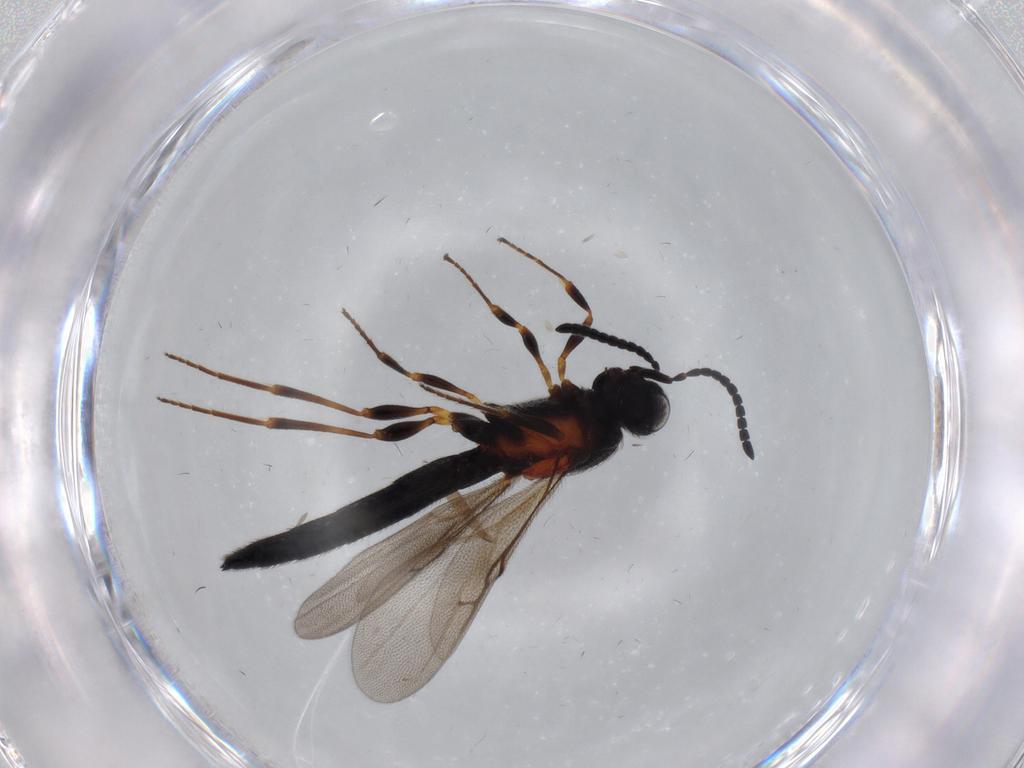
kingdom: Animalia
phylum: Arthropoda
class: Insecta
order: Hymenoptera
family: Scelionidae
